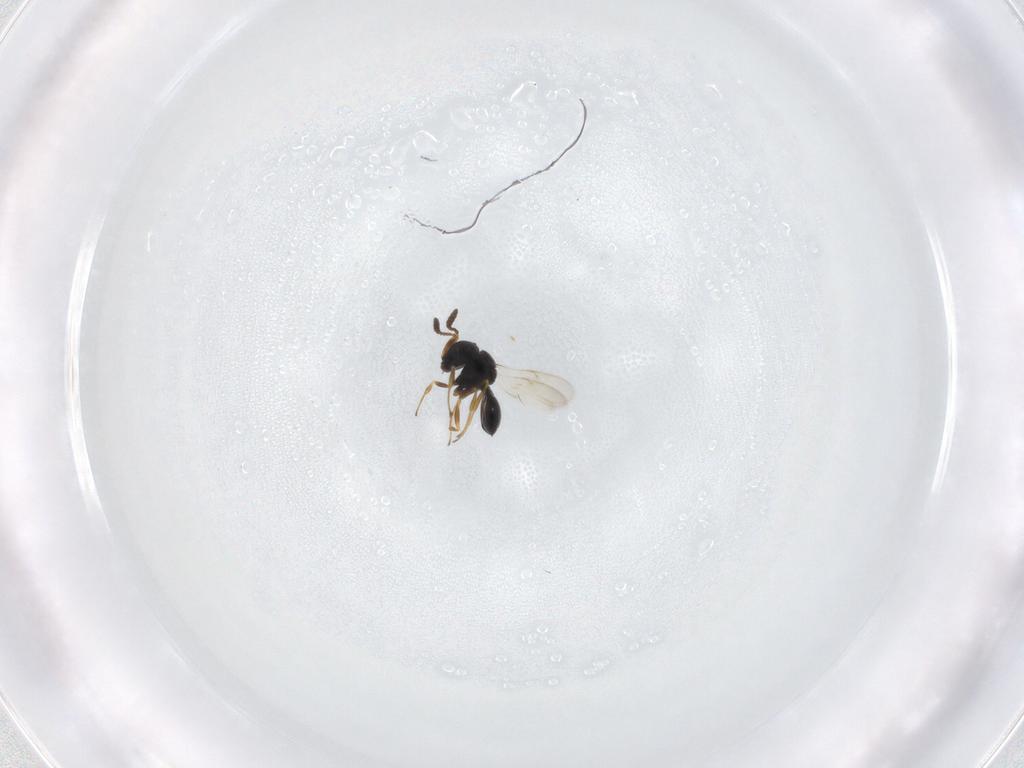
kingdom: Animalia
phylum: Arthropoda
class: Insecta
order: Hymenoptera
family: Scelionidae
